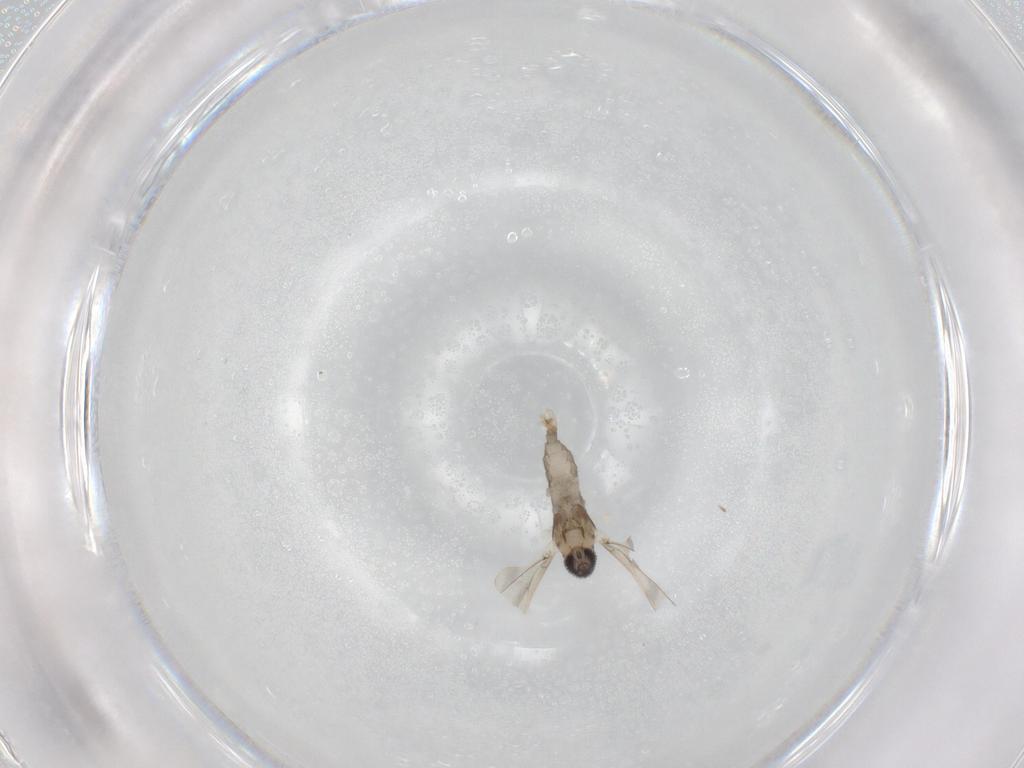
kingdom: Animalia
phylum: Arthropoda
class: Insecta
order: Diptera
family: Cecidomyiidae
